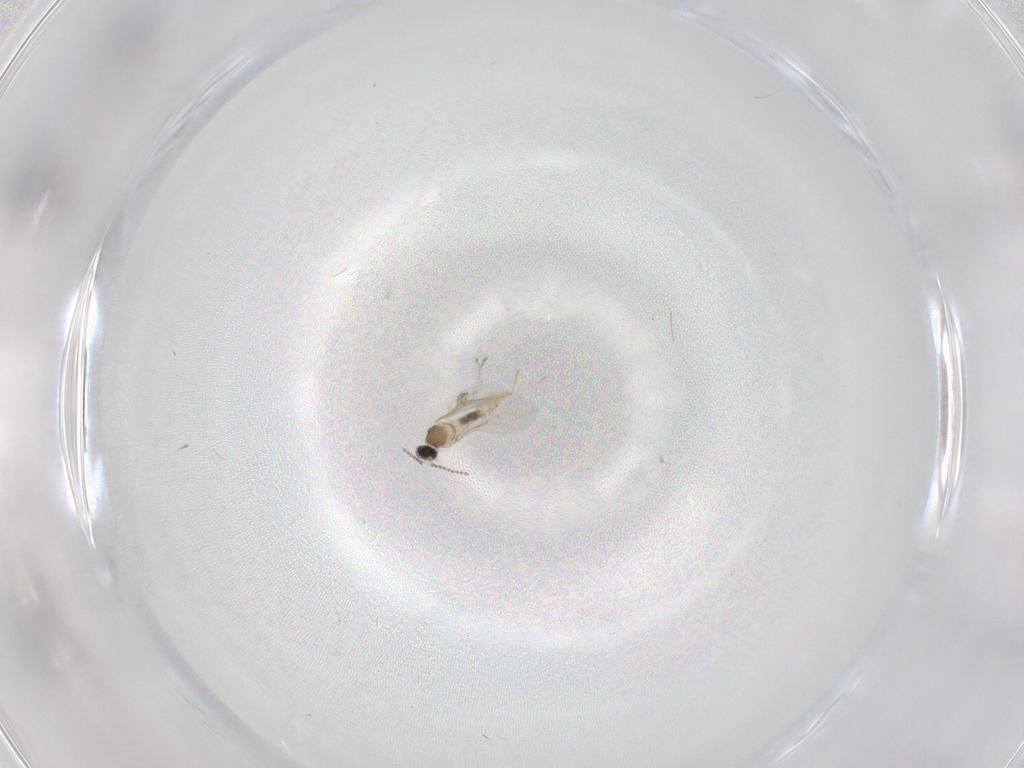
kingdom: Animalia
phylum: Arthropoda
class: Insecta
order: Diptera
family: Cecidomyiidae
